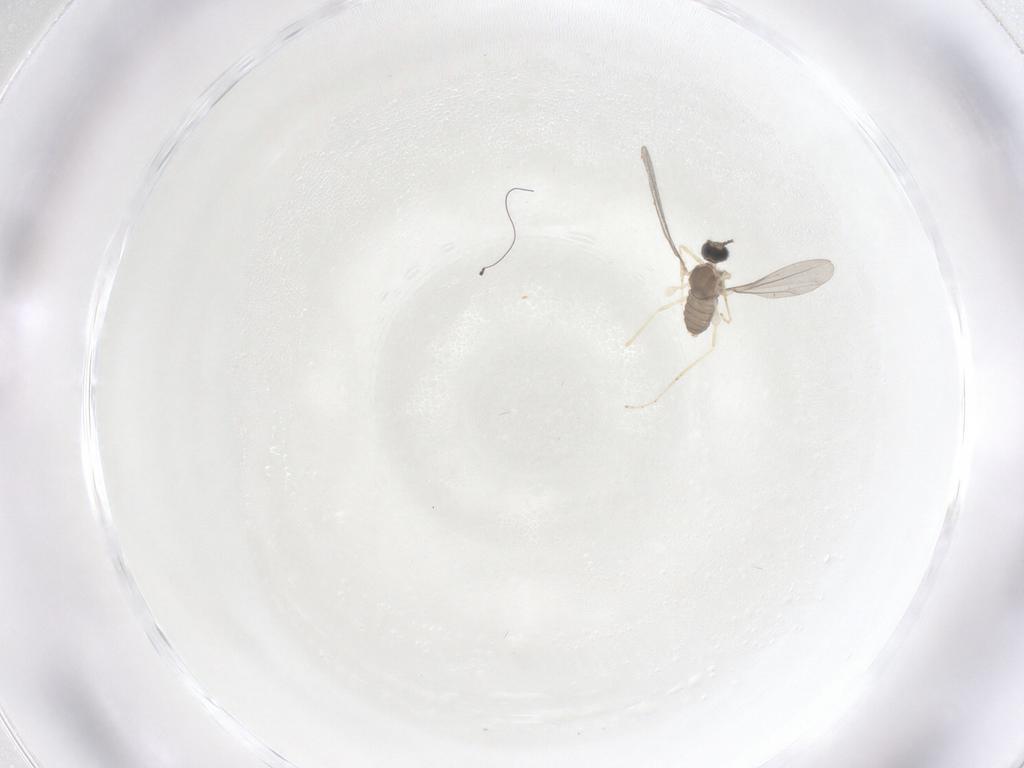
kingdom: Animalia
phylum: Arthropoda
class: Insecta
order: Diptera
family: Cecidomyiidae
